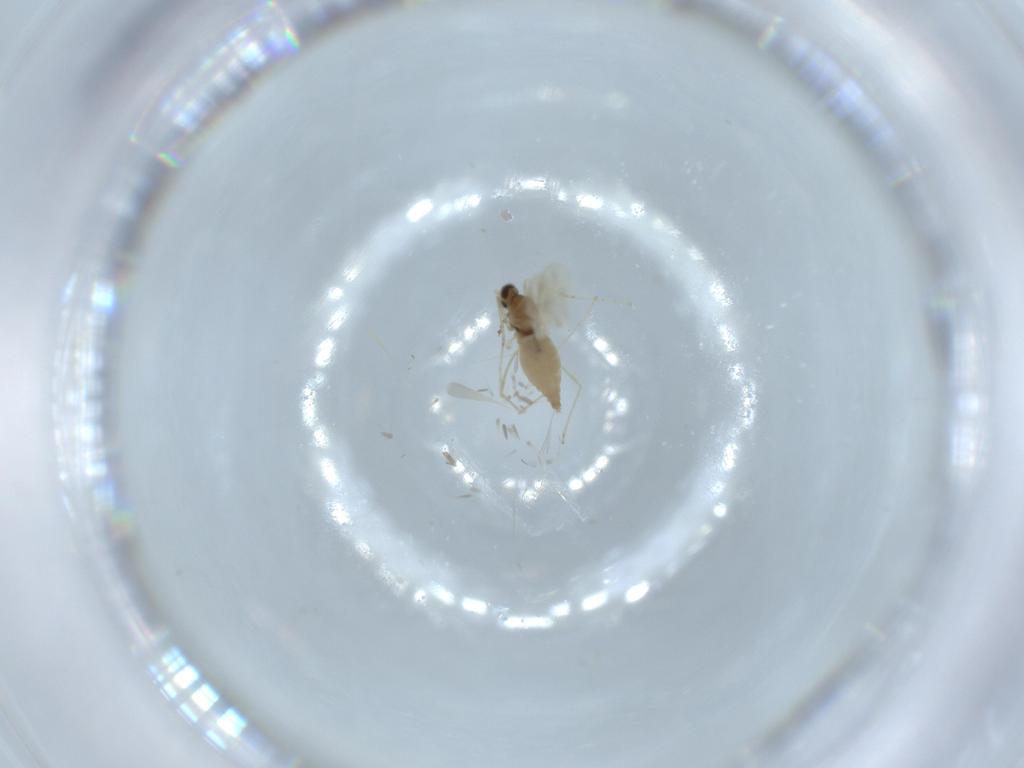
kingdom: Animalia
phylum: Arthropoda
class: Insecta
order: Diptera
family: Cecidomyiidae
